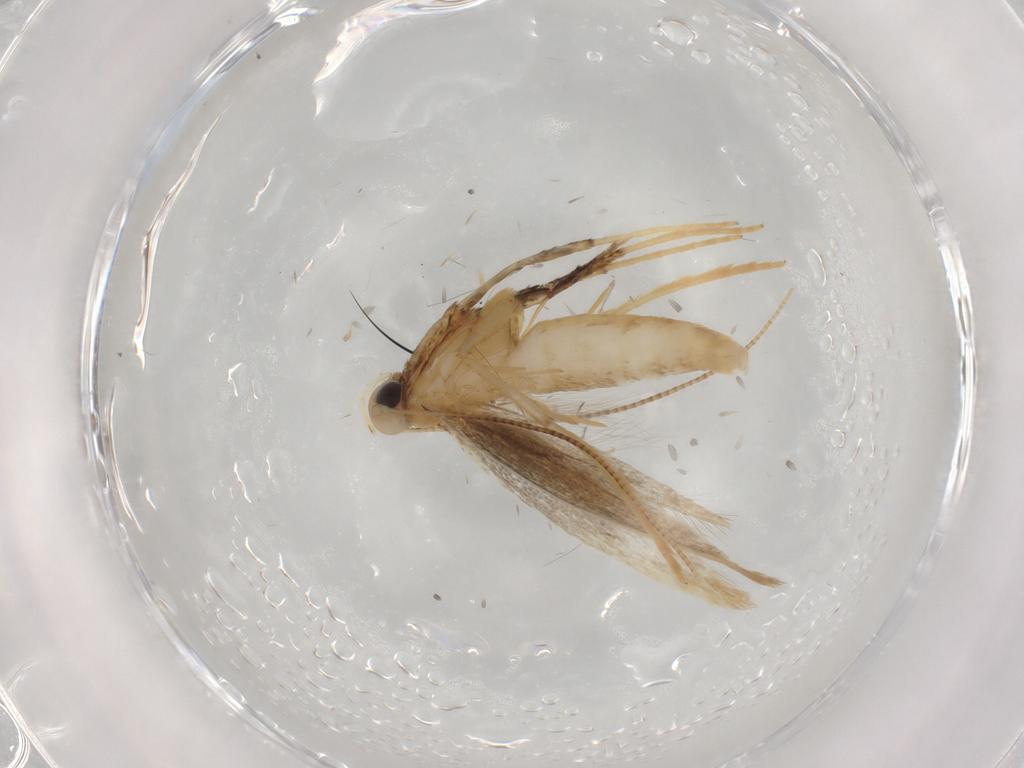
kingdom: Animalia
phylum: Arthropoda
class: Insecta
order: Lepidoptera
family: Gracillariidae
